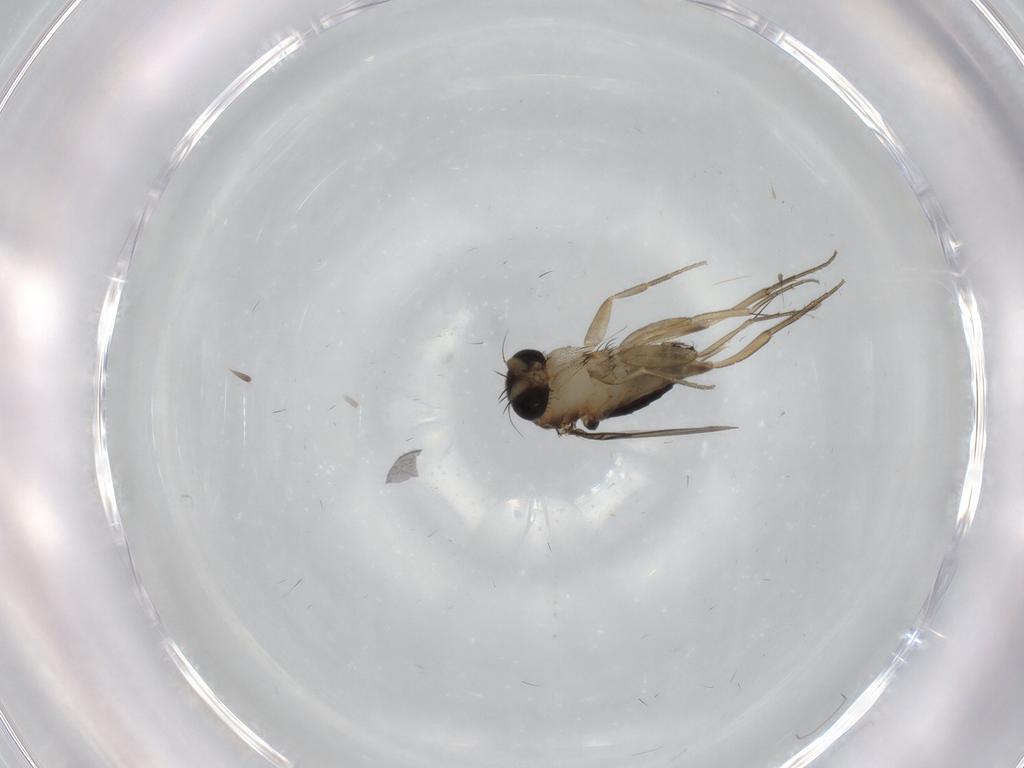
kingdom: Animalia
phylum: Arthropoda
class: Insecta
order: Diptera
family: Phoridae
